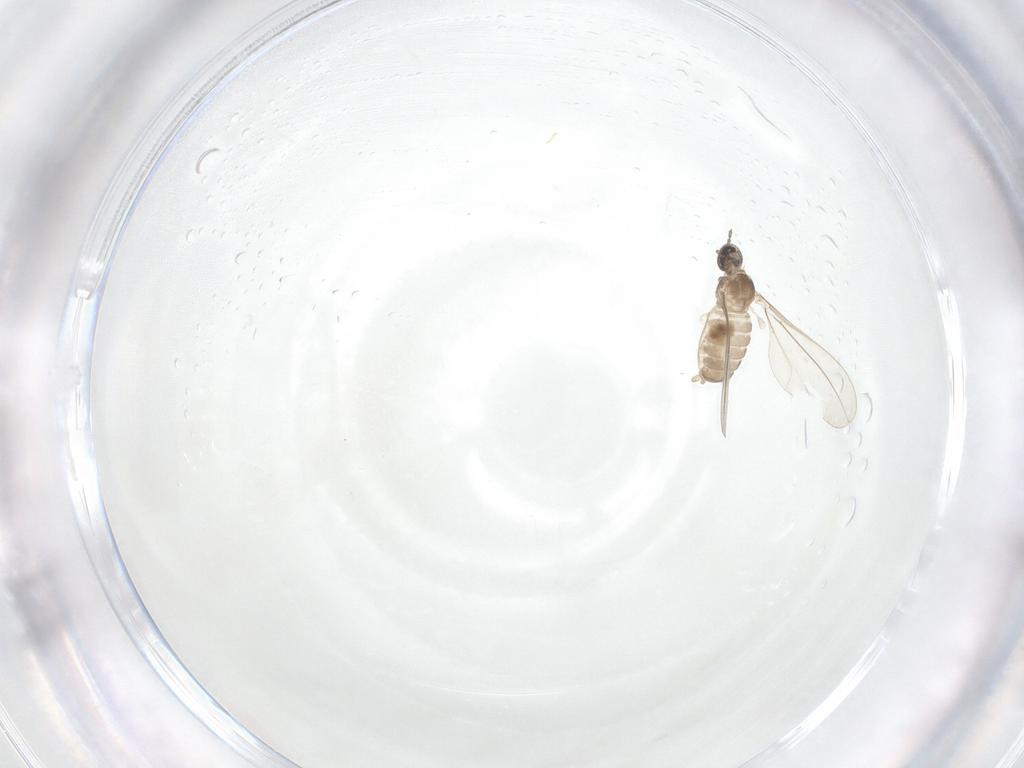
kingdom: Animalia
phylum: Arthropoda
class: Insecta
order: Diptera
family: Cecidomyiidae
